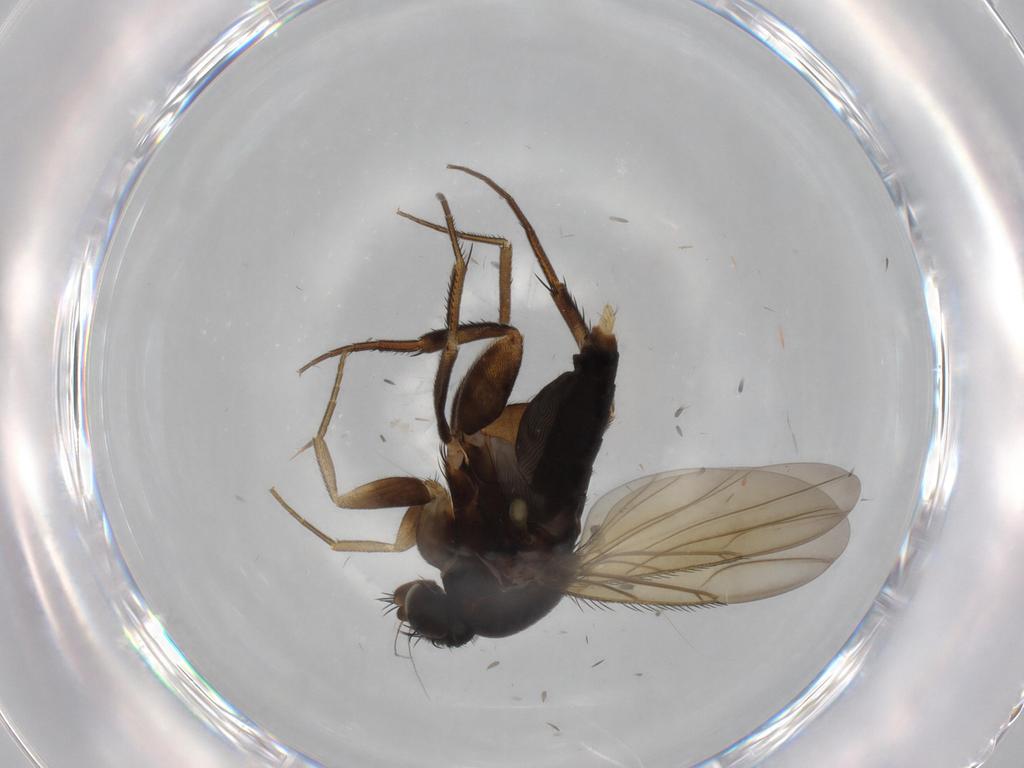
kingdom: Animalia
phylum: Arthropoda
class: Insecta
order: Diptera
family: Phoridae
